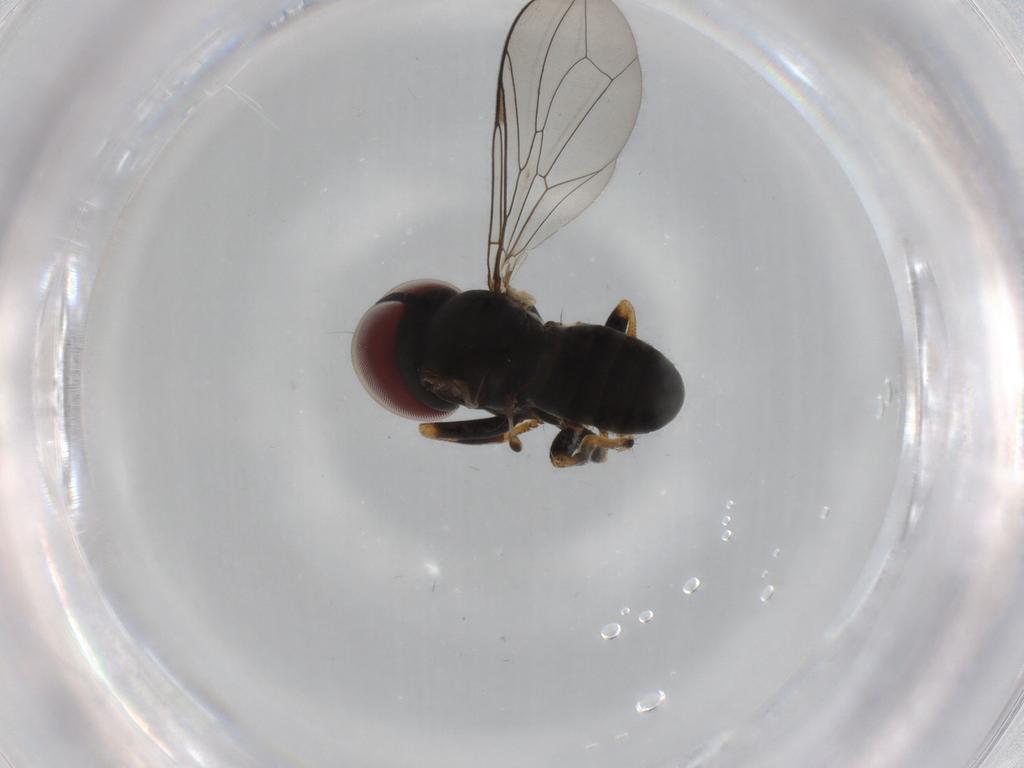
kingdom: Animalia
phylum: Arthropoda
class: Insecta
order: Diptera
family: Pipunculidae
